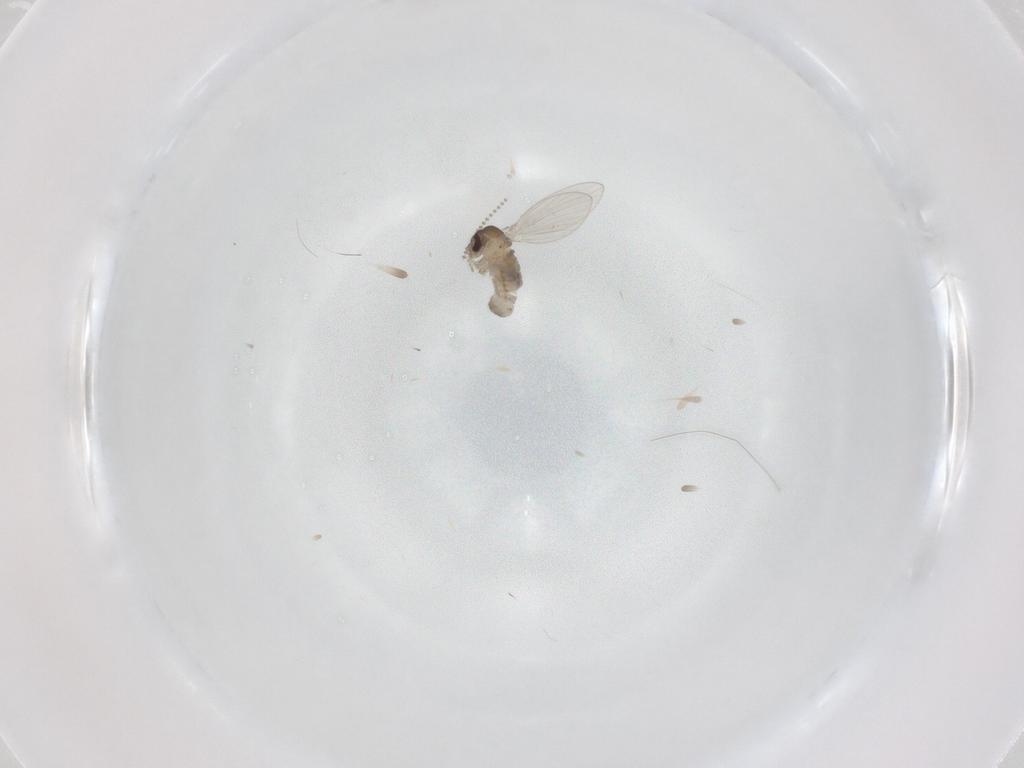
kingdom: Animalia
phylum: Arthropoda
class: Insecta
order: Diptera
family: Psychodidae
